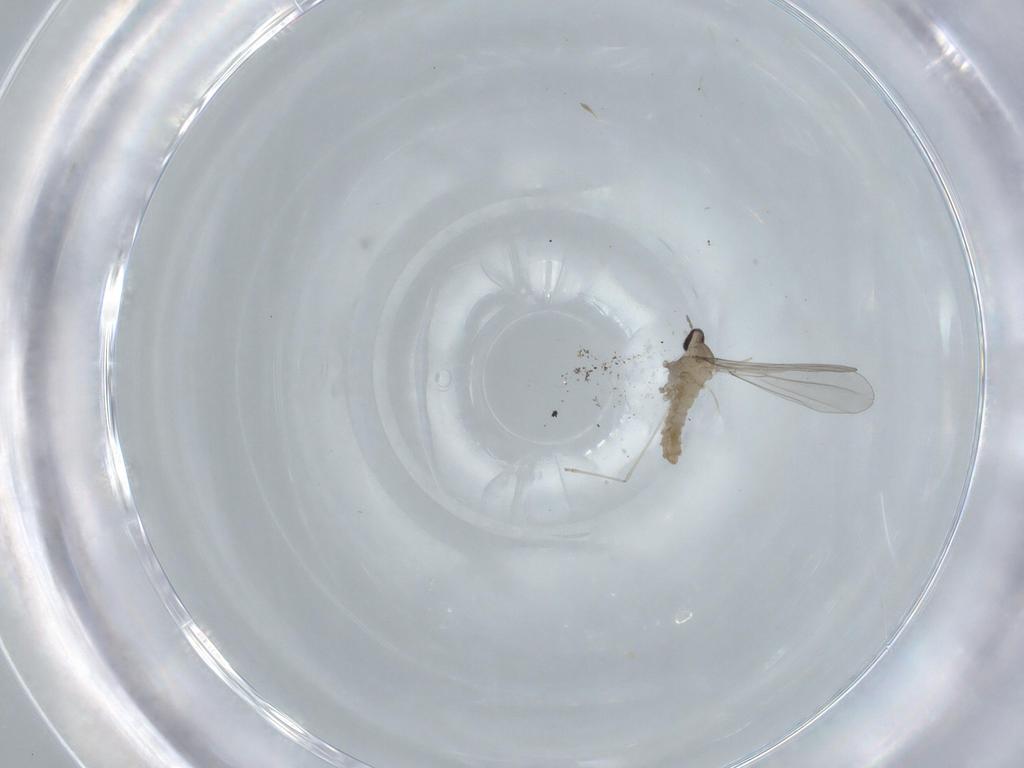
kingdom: Animalia
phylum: Arthropoda
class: Insecta
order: Diptera
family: Cecidomyiidae
